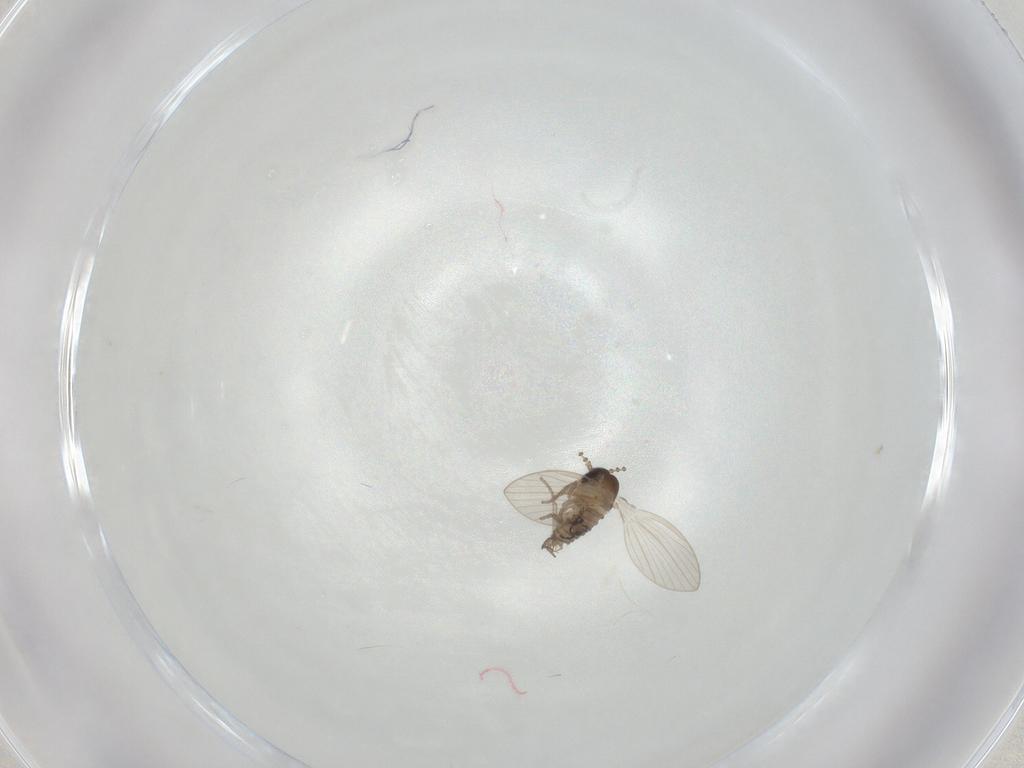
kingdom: Animalia
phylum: Arthropoda
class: Insecta
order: Diptera
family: Psychodidae
